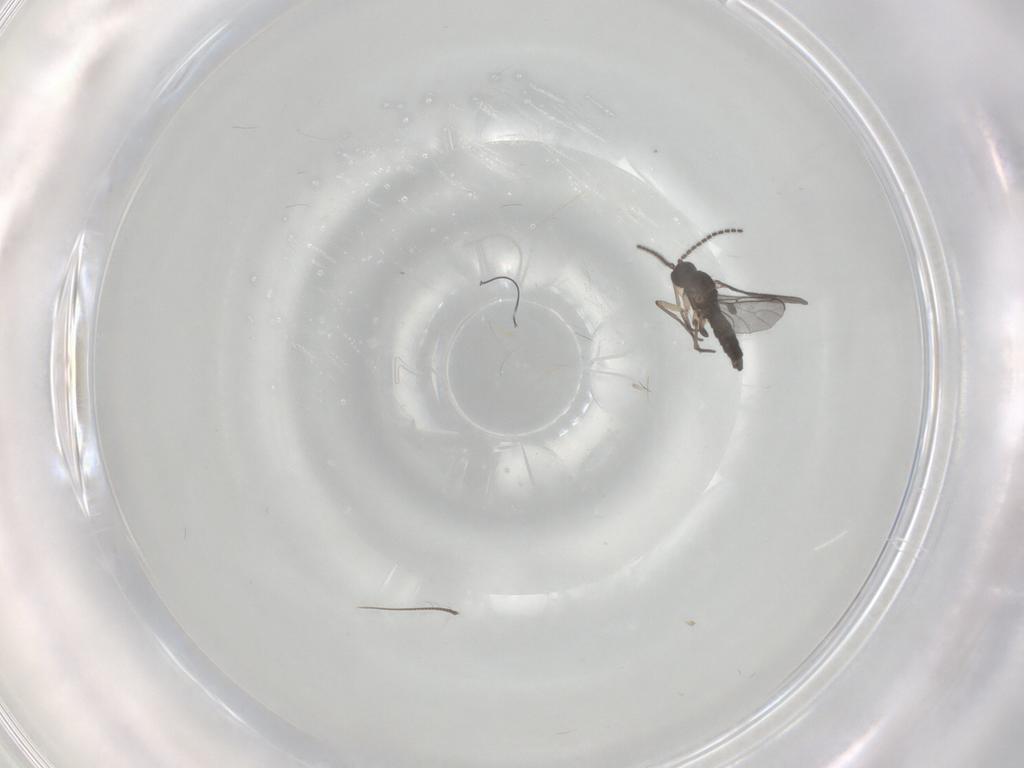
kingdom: Animalia
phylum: Arthropoda
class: Insecta
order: Diptera
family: Sciaridae
